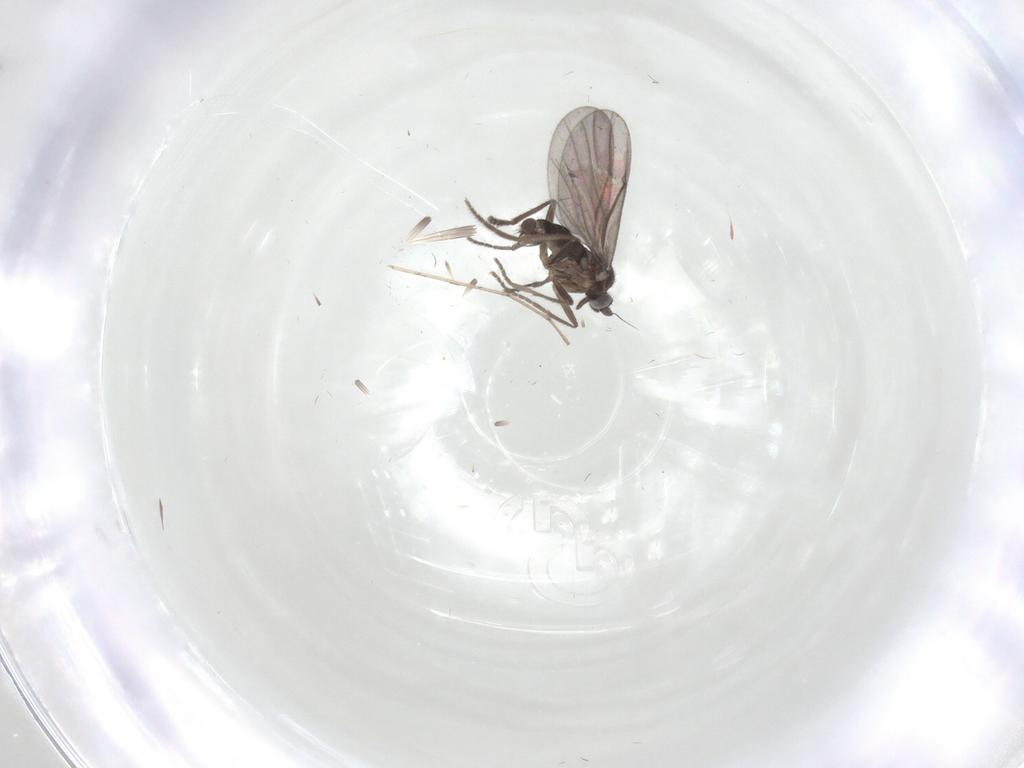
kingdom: Animalia
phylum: Arthropoda
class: Insecta
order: Diptera
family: Phoridae
